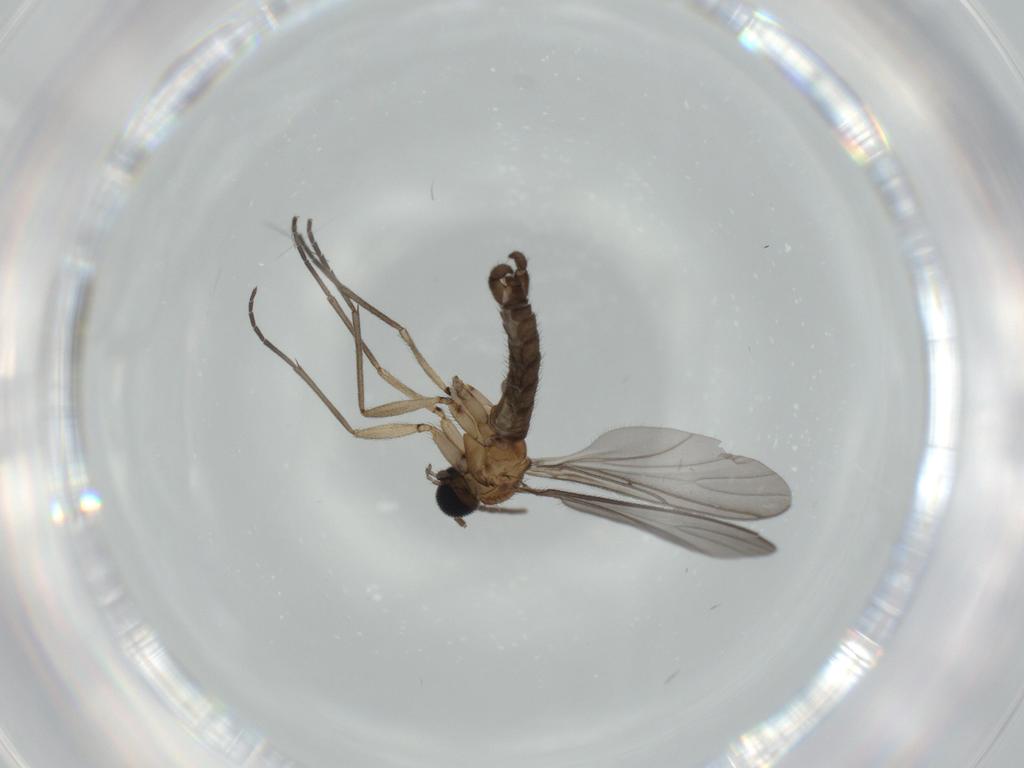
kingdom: Animalia
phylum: Arthropoda
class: Insecta
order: Diptera
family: Sciaridae
